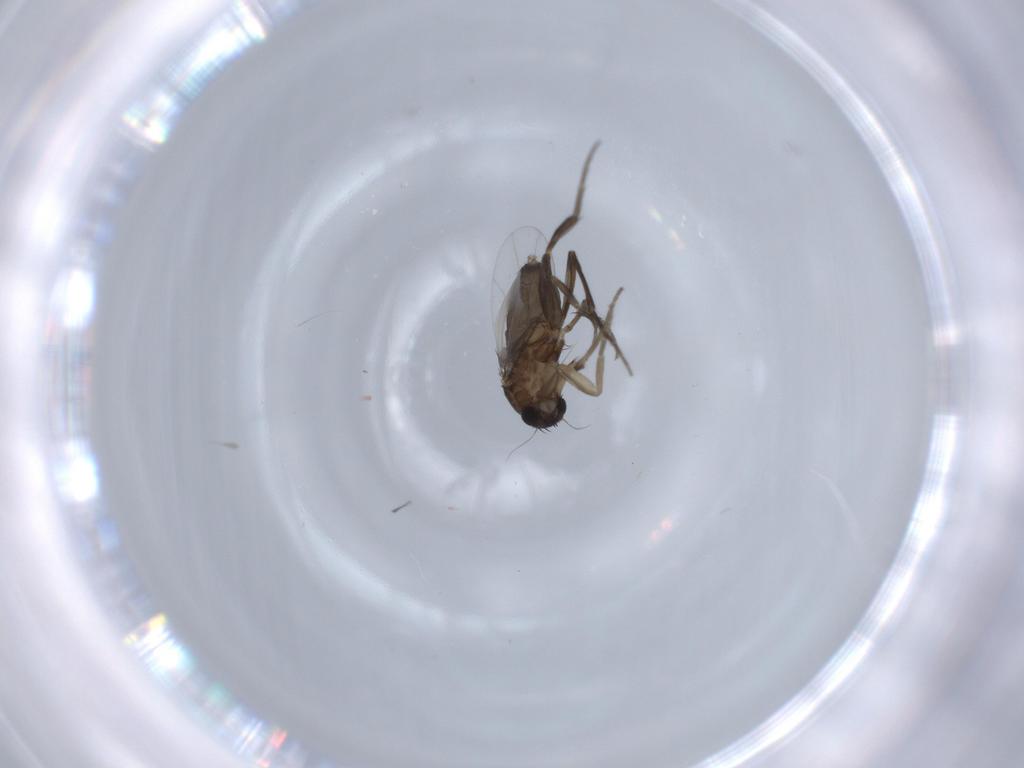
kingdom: Animalia
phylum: Arthropoda
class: Insecta
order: Diptera
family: Phoridae
